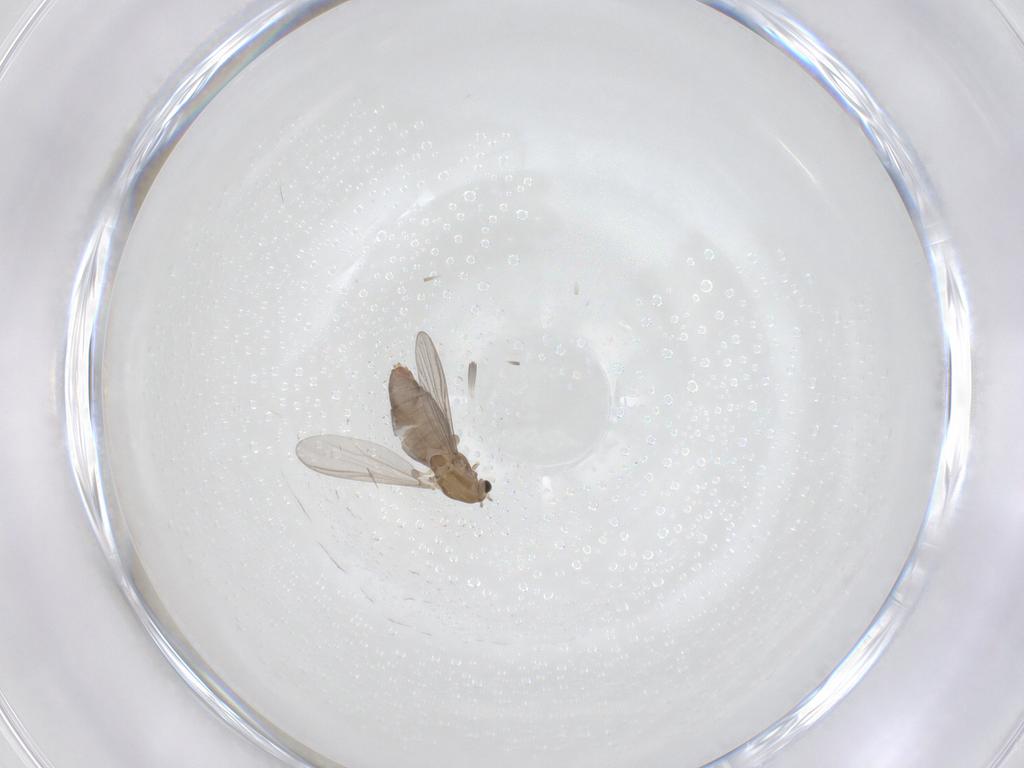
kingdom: Animalia
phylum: Arthropoda
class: Insecta
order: Diptera
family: Chironomidae
